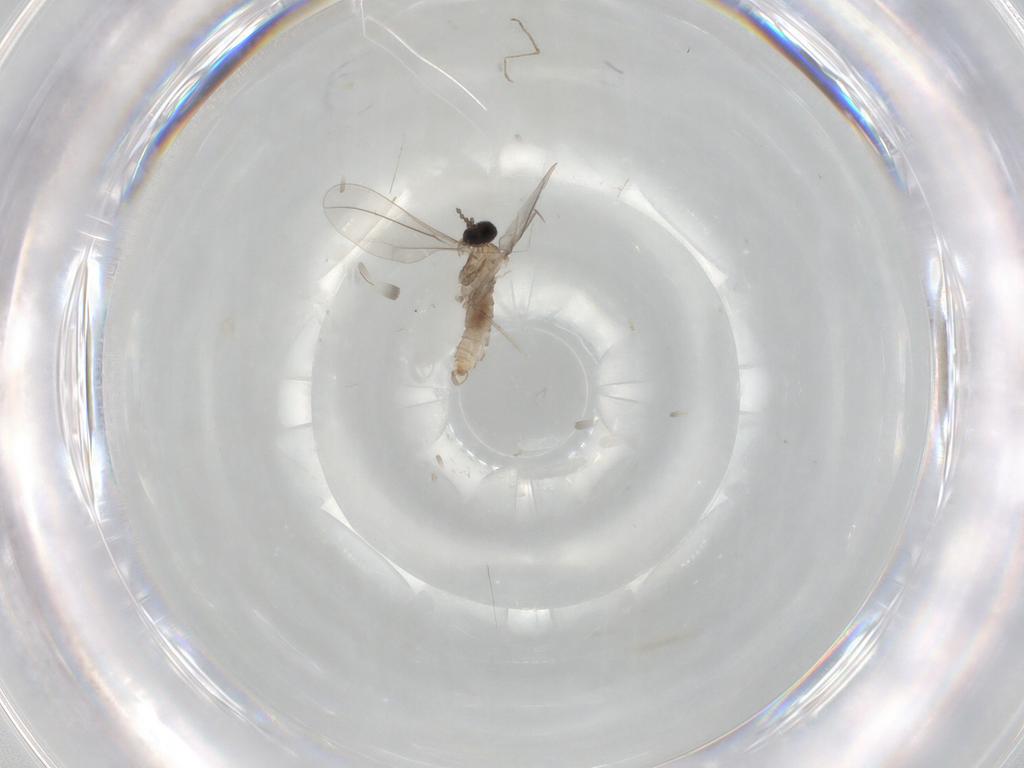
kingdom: Animalia
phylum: Arthropoda
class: Insecta
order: Diptera
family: Cecidomyiidae
